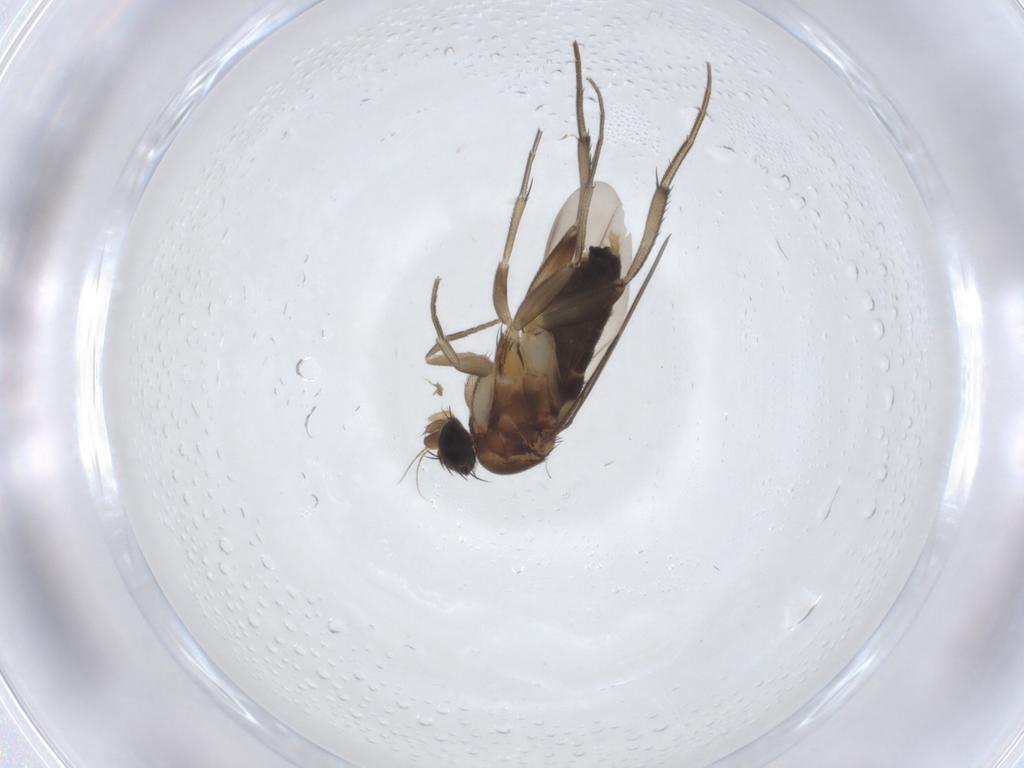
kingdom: Animalia
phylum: Arthropoda
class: Insecta
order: Diptera
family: Phoridae
